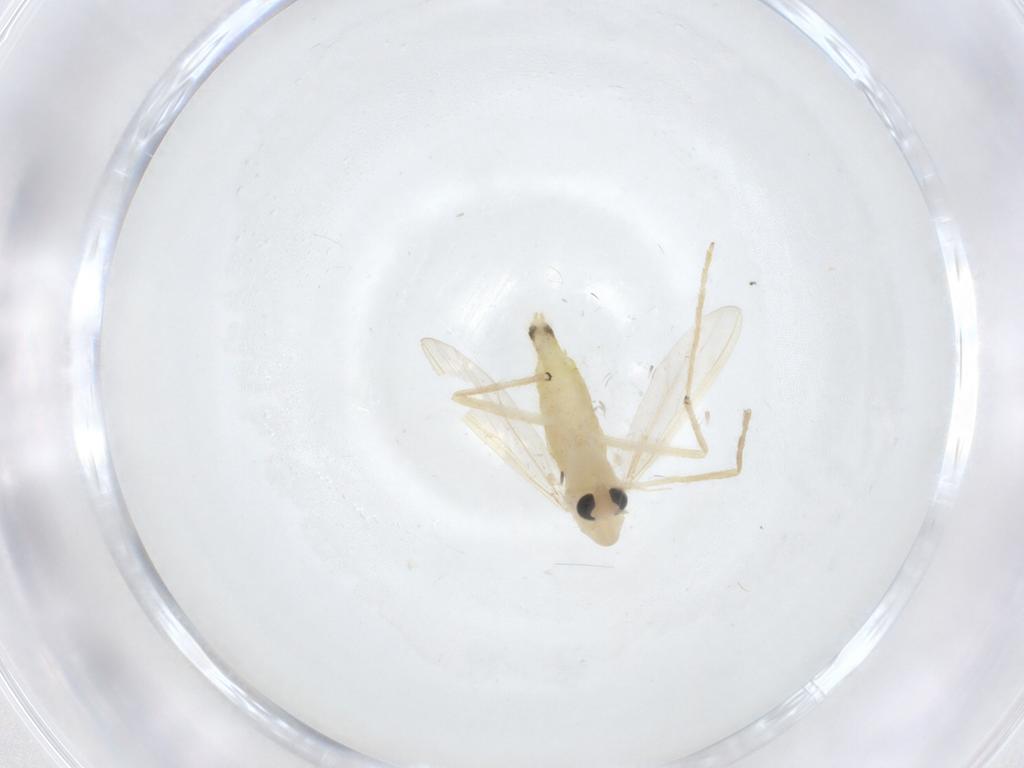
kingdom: Animalia
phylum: Arthropoda
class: Insecta
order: Diptera
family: Chironomidae
